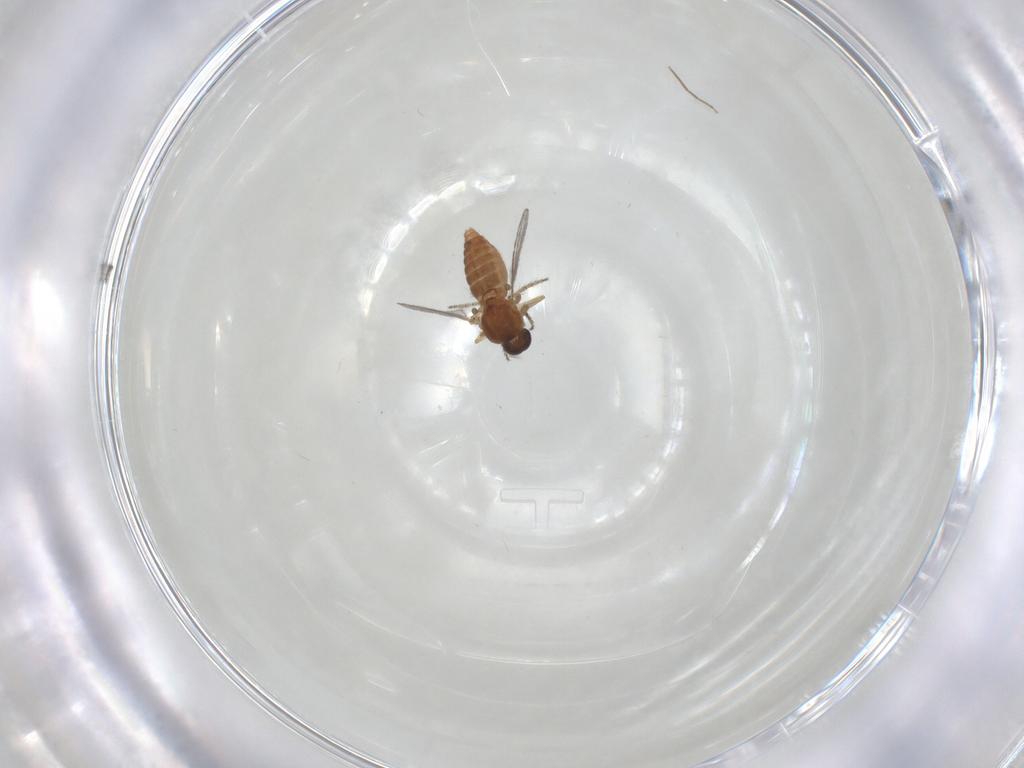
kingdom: Animalia
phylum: Arthropoda
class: Insecta
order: Diptera
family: Ceratopogonidae
